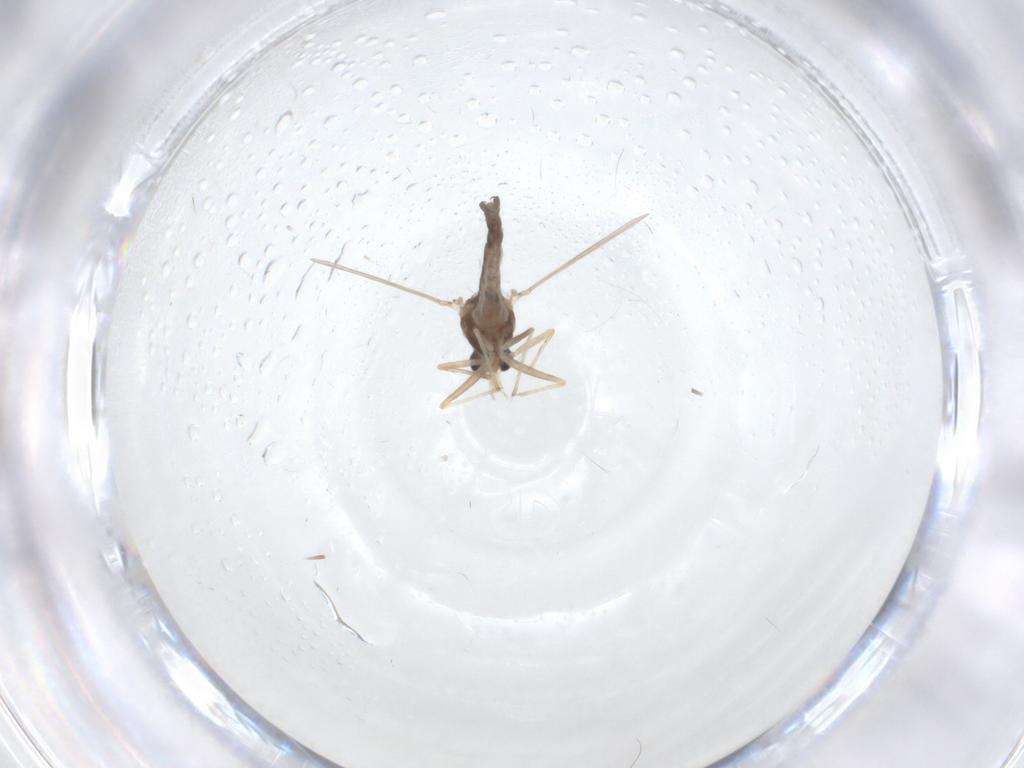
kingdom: Animalia
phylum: Arthropoda
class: Insecta
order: Diptera
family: Chironomidae
